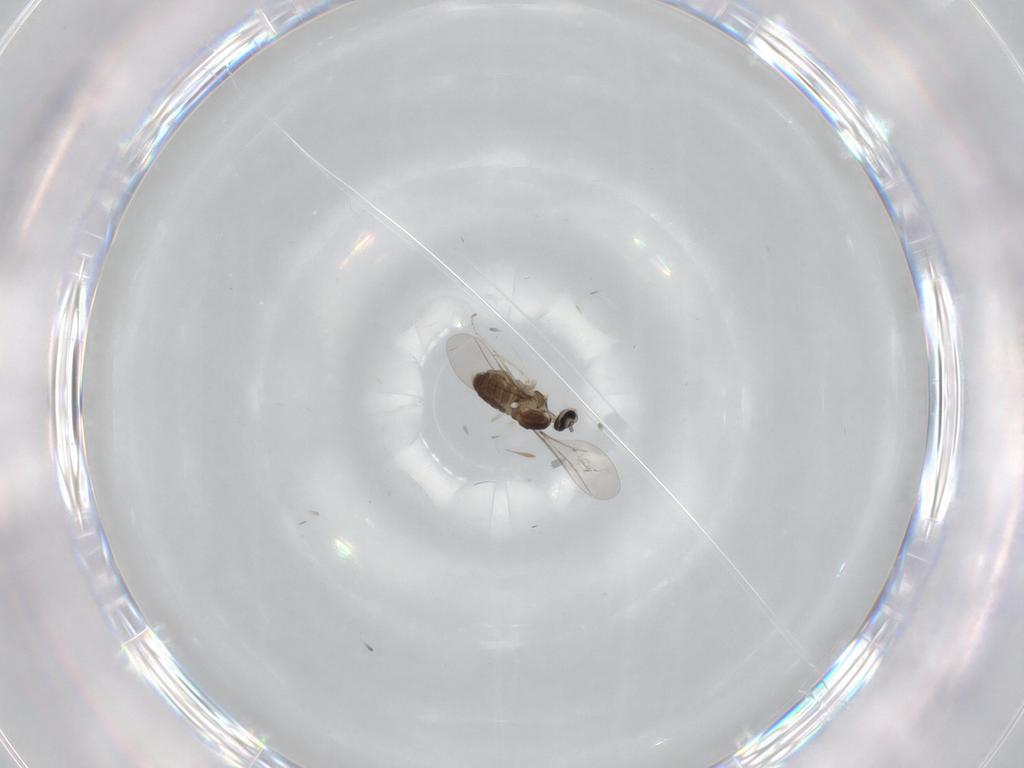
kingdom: Animalia
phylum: Arthropoda
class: Insecta
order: Diptera
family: Cecidomyiidae
